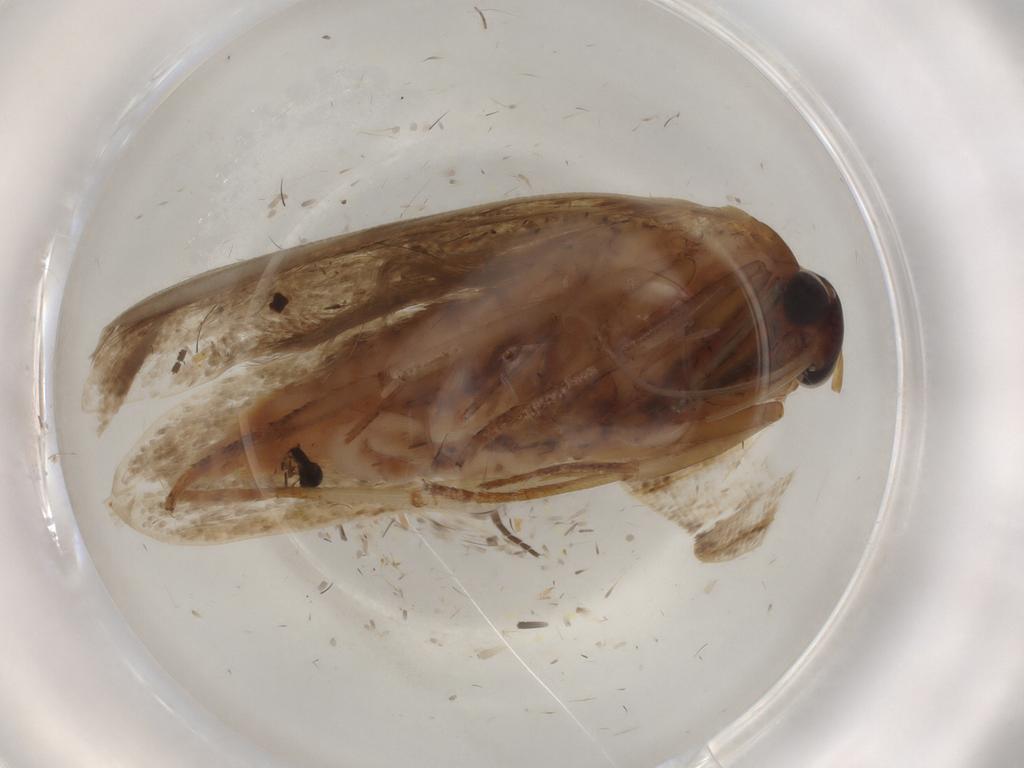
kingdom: Animalia
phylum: Arthropoda
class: Insecta
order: Lepidoptera
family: Blastobasidae
